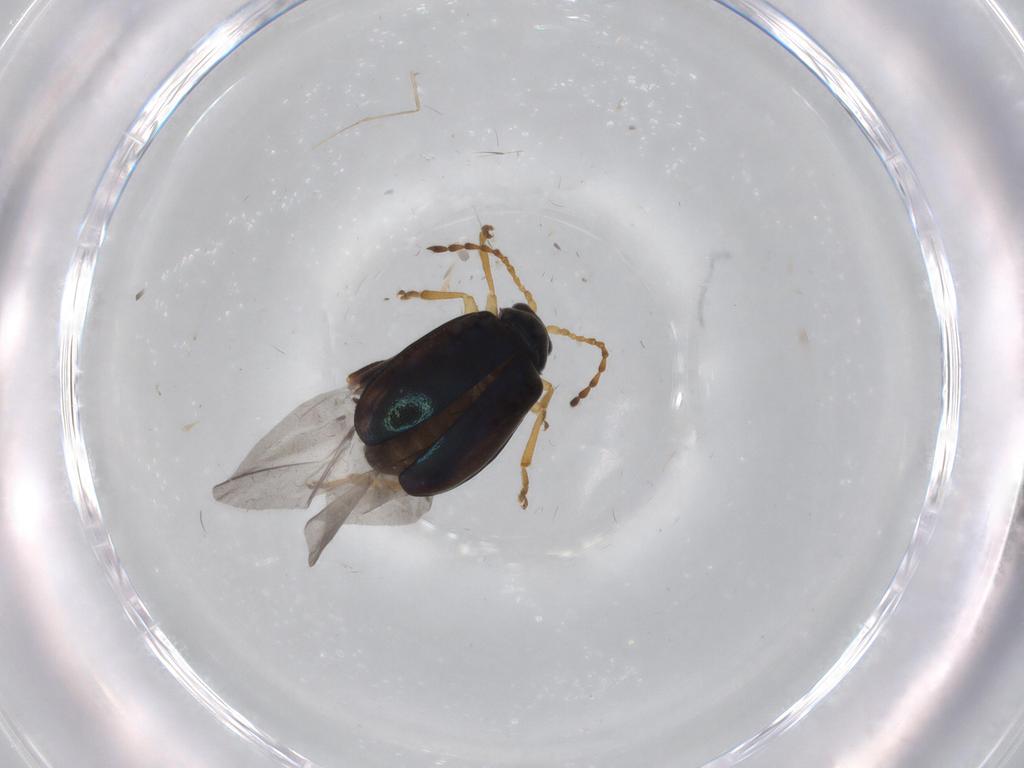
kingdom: Animalia
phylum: Arthropoda
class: Insecta
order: Coleoptera
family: Chrysomelidae
